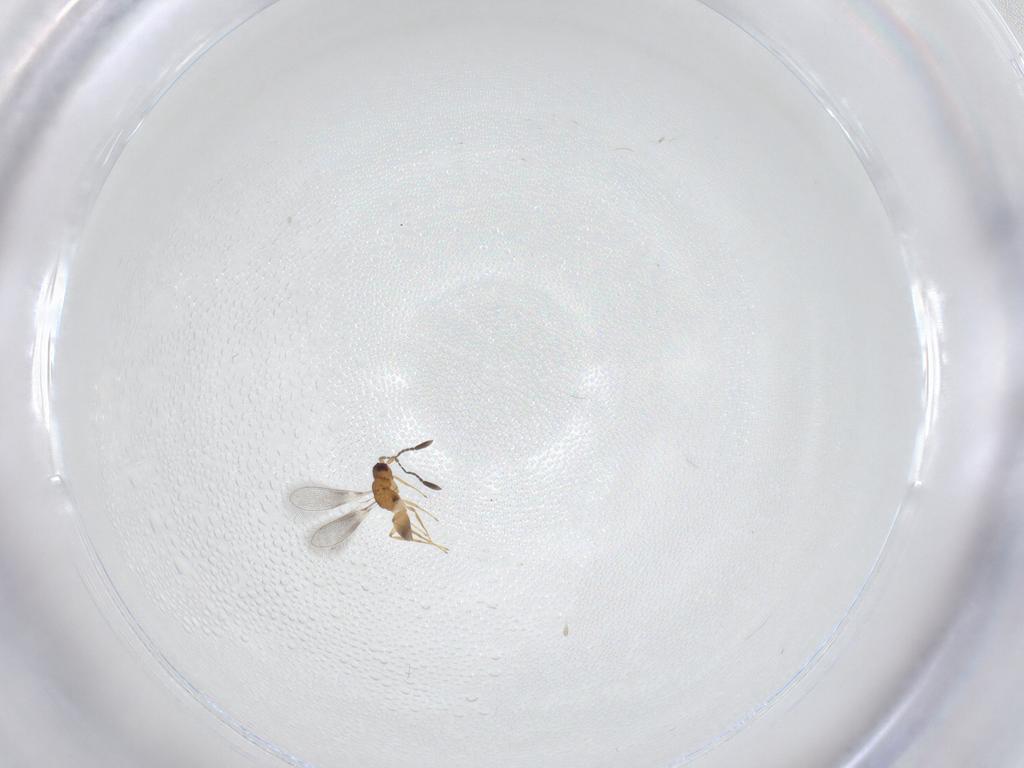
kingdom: Animalia
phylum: Arthropoda
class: Insecta
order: Hymenoptera
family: Mymaridae
